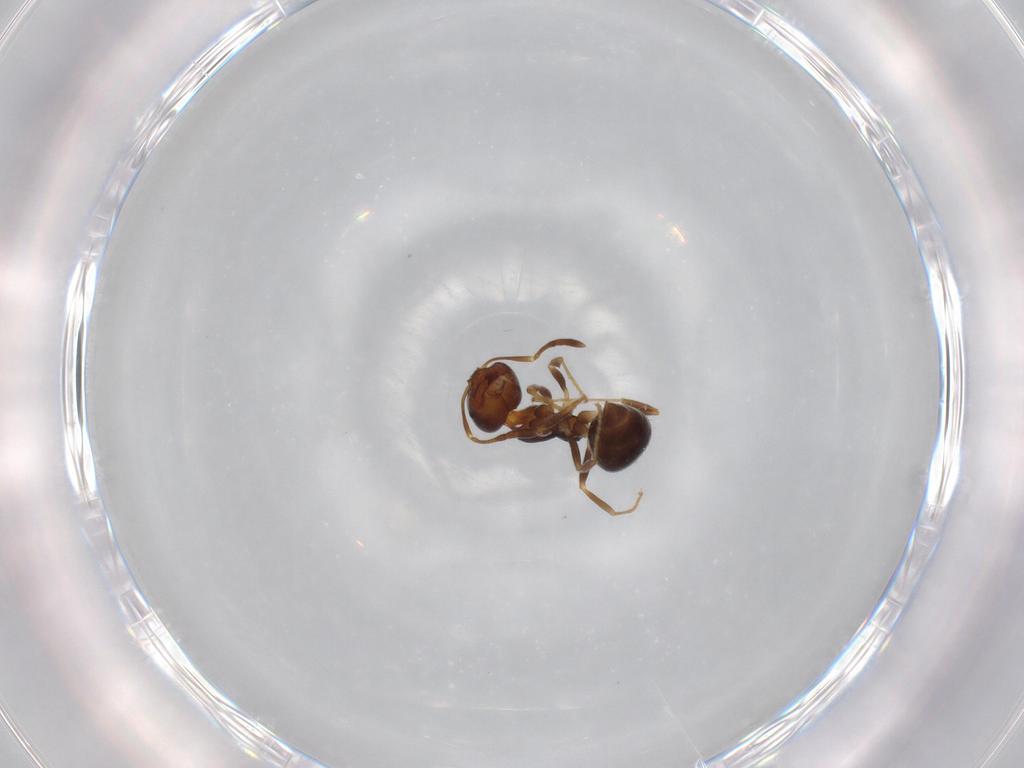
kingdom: Animalia
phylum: Arthropoda
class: Insecta
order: Hymenoptera
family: Formicidae
